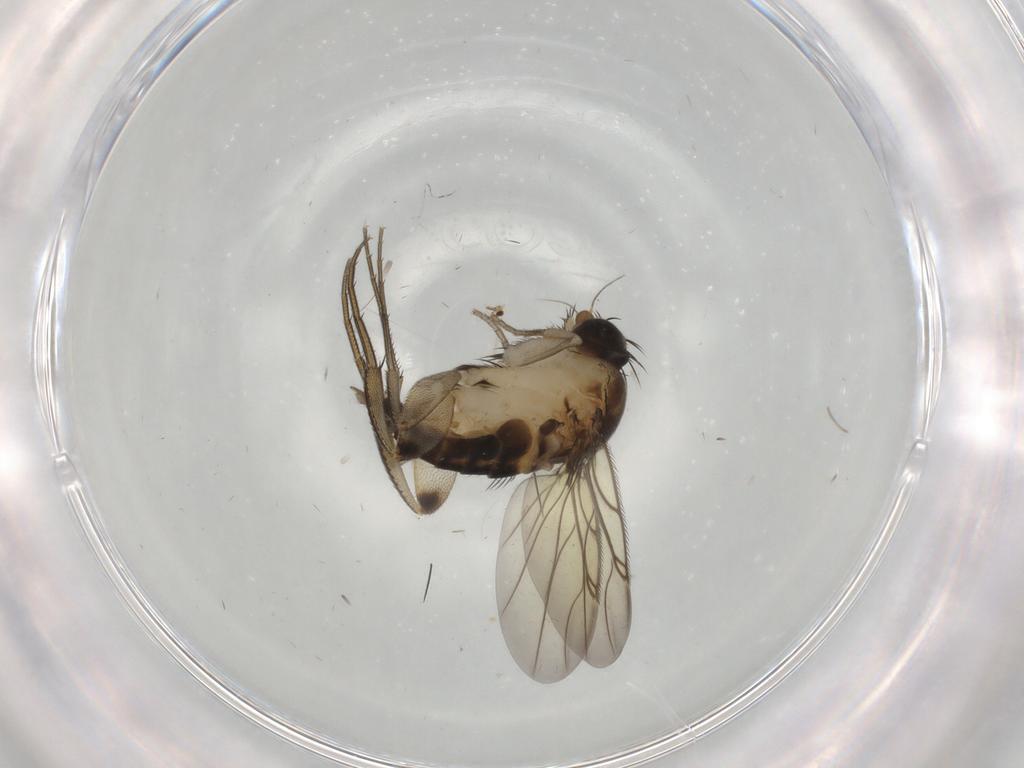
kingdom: Animalia
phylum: Arthropoda
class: Insecta
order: Diptera
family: Phoridae
